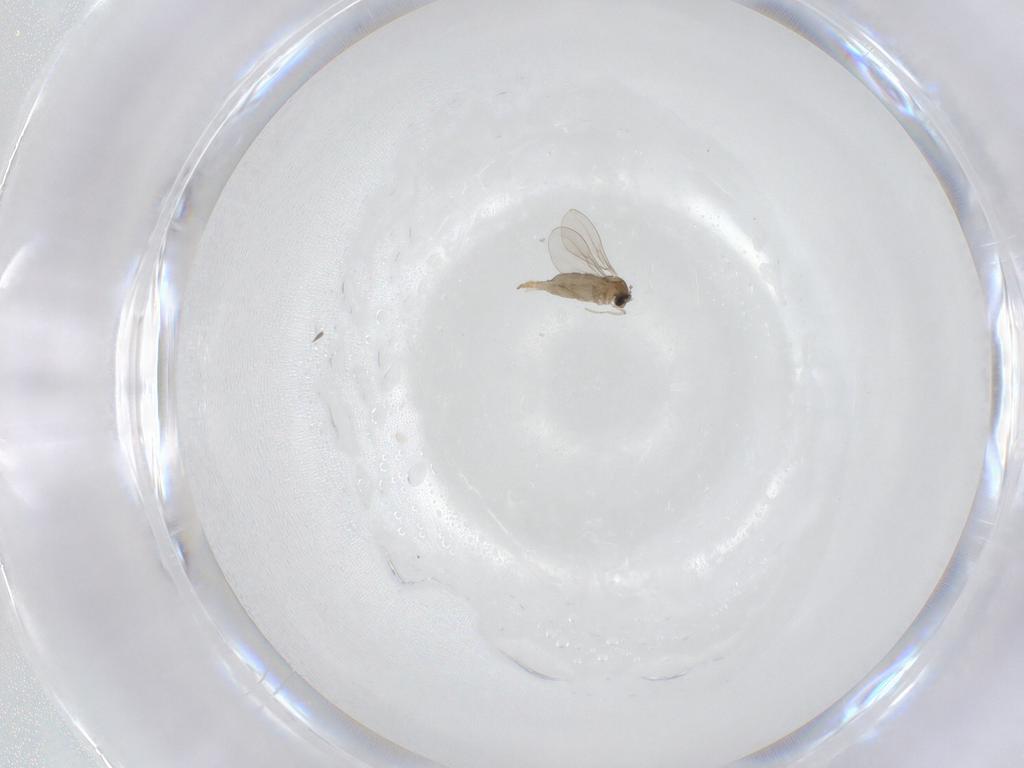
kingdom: Animalia
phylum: Arthropoda
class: Insecta
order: Diptera
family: Cecidomyiidae
